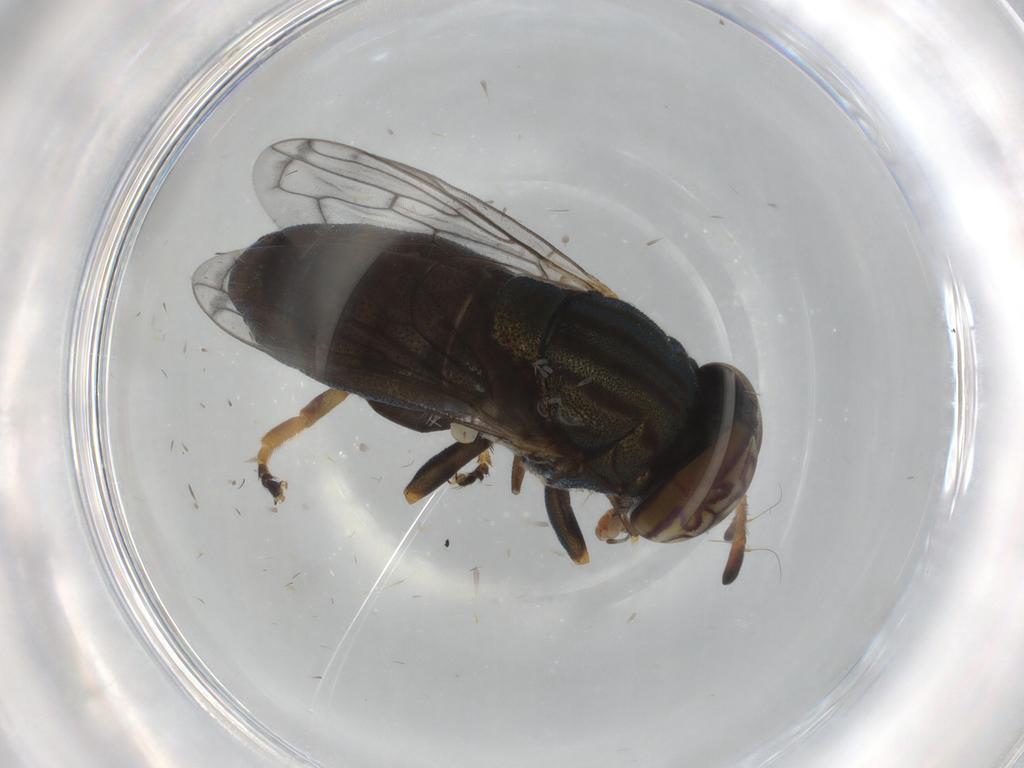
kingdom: Animalia
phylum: Arthropoda
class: Insecta
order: Diptera
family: Syrphidae
